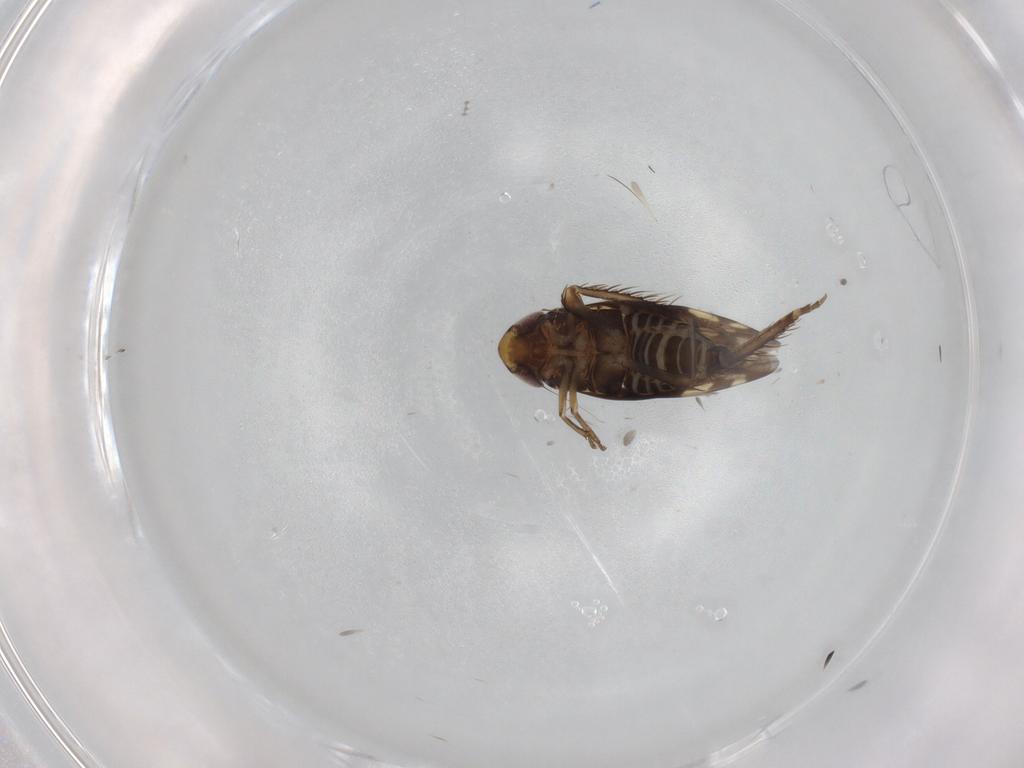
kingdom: Animalia
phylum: Arthropoda
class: Insecta
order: Hemiptera
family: Cicadellidae
